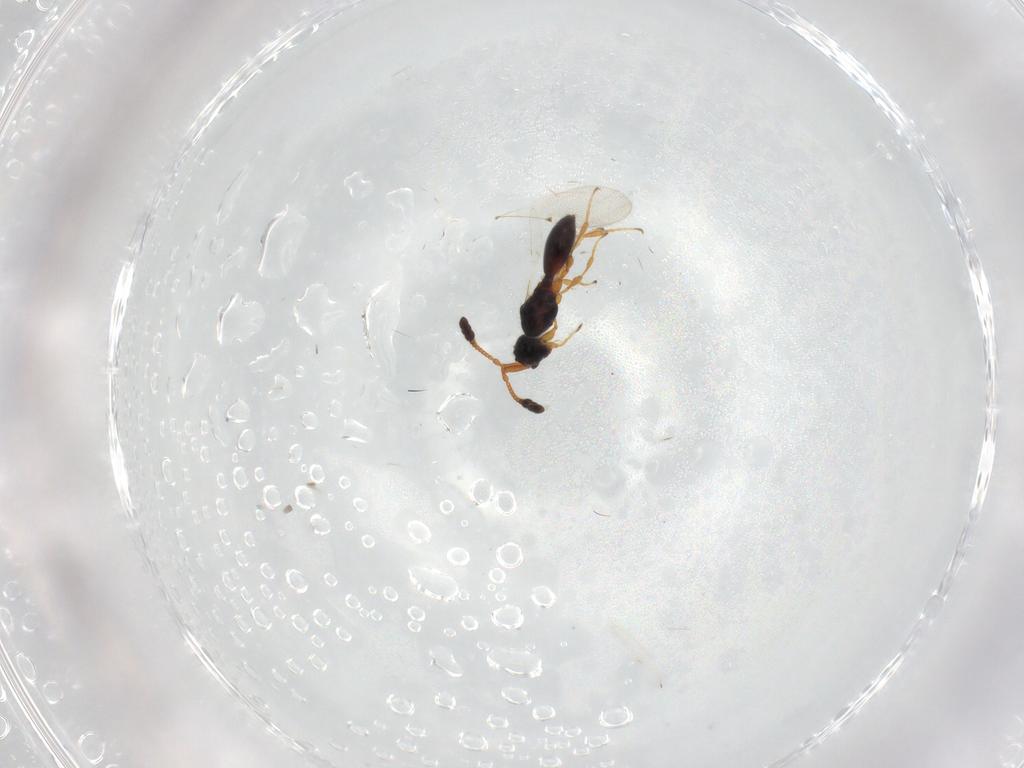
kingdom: Animalia
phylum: Arthropoda
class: Insecta
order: Hymenoptera
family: Diapriidae
